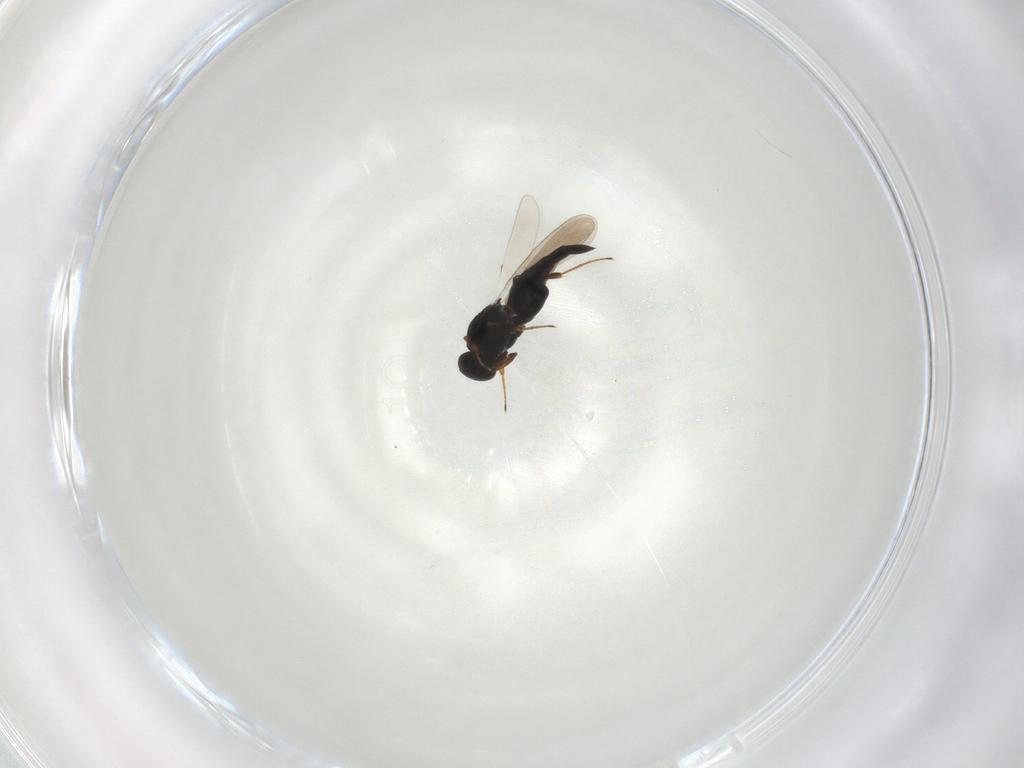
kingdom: Animalia
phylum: Arthropoda
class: Insecta
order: Hymenoptera
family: Platygastridae
